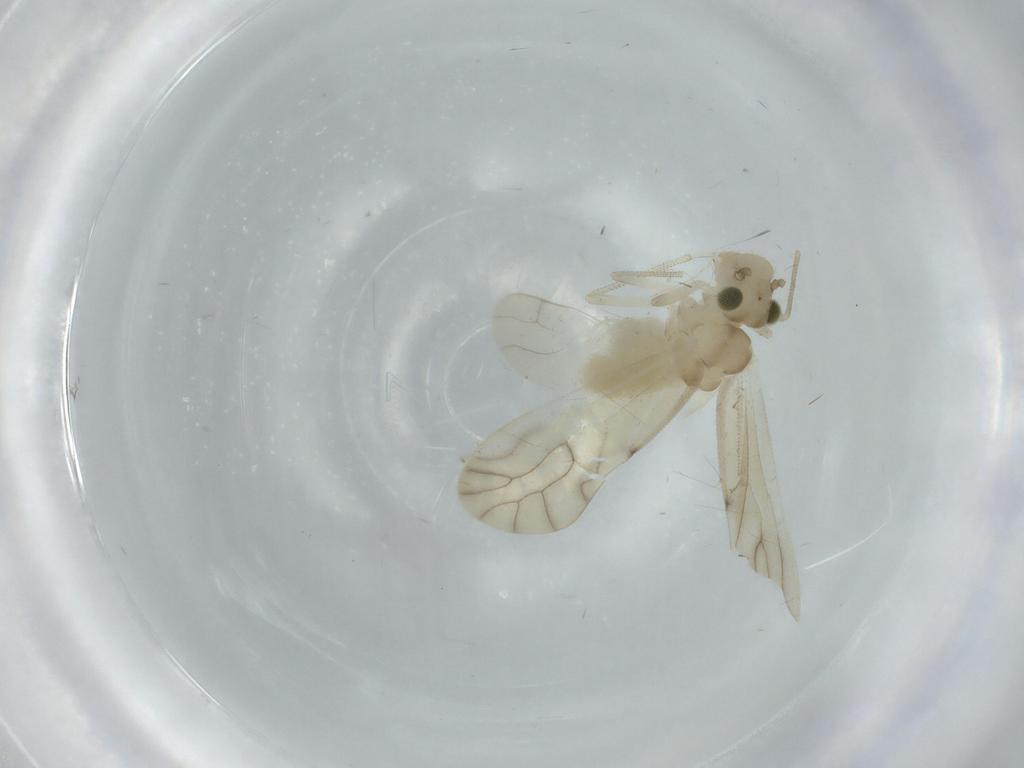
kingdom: Animalia
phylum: Arthropoda
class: Insecta
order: Psocodea
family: Caeciliusidae
